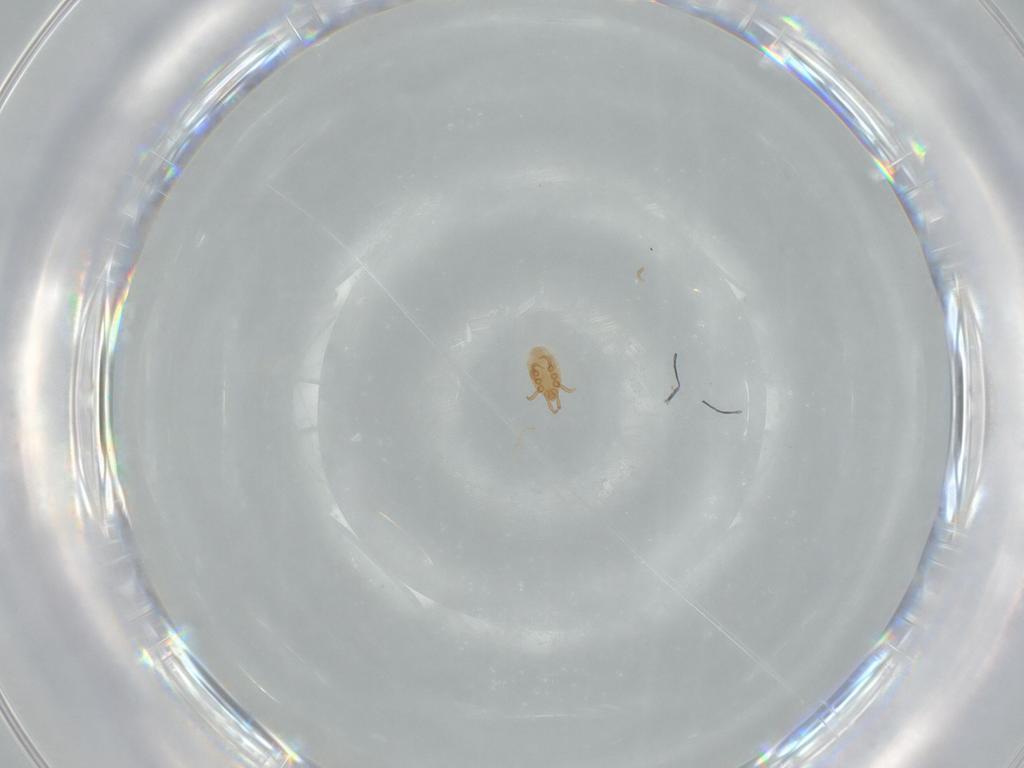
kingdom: Animalia
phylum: Arthropoda
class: Arachnida
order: Mesostigmata
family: Dinychidae
